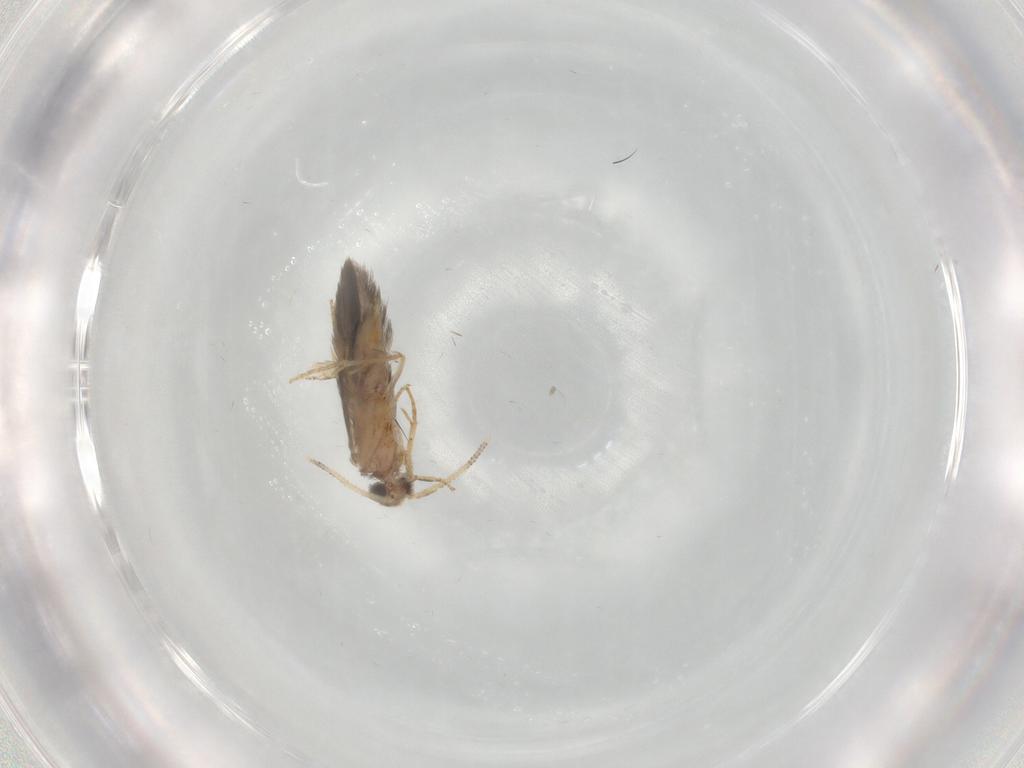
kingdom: Animalia
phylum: Arthropoda
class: Insecta
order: Trichoptera
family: Hydroptilidae
